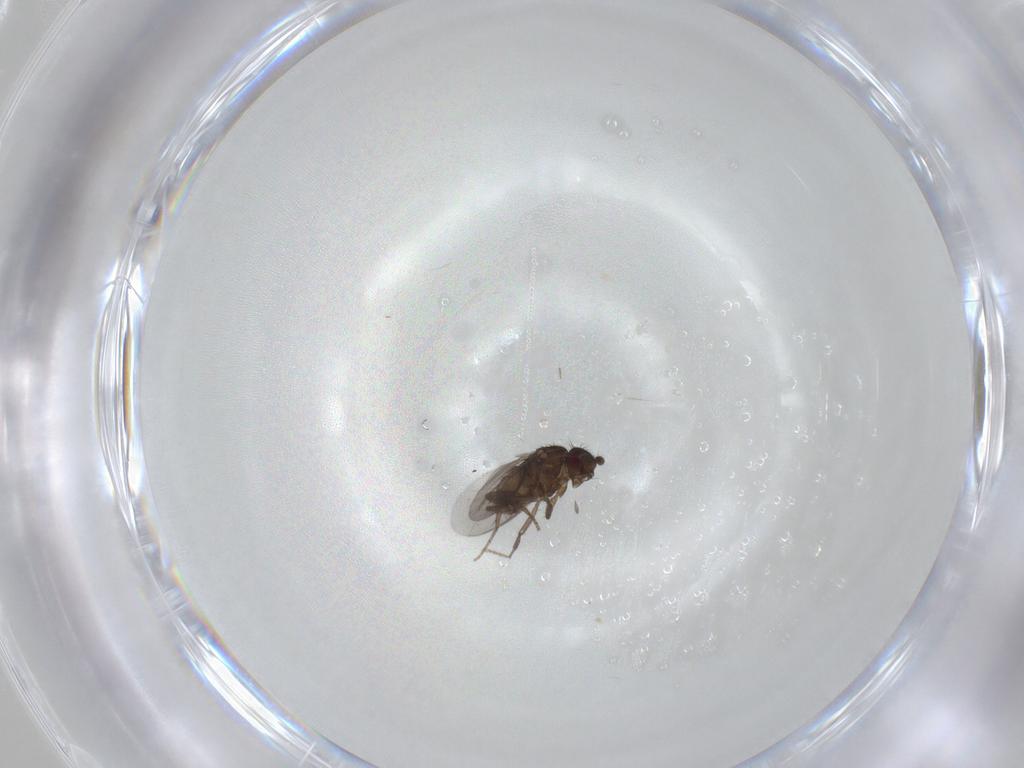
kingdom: Animalia
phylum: Arthropoda
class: Insecta
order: Diptera
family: Sphaeroceridae
